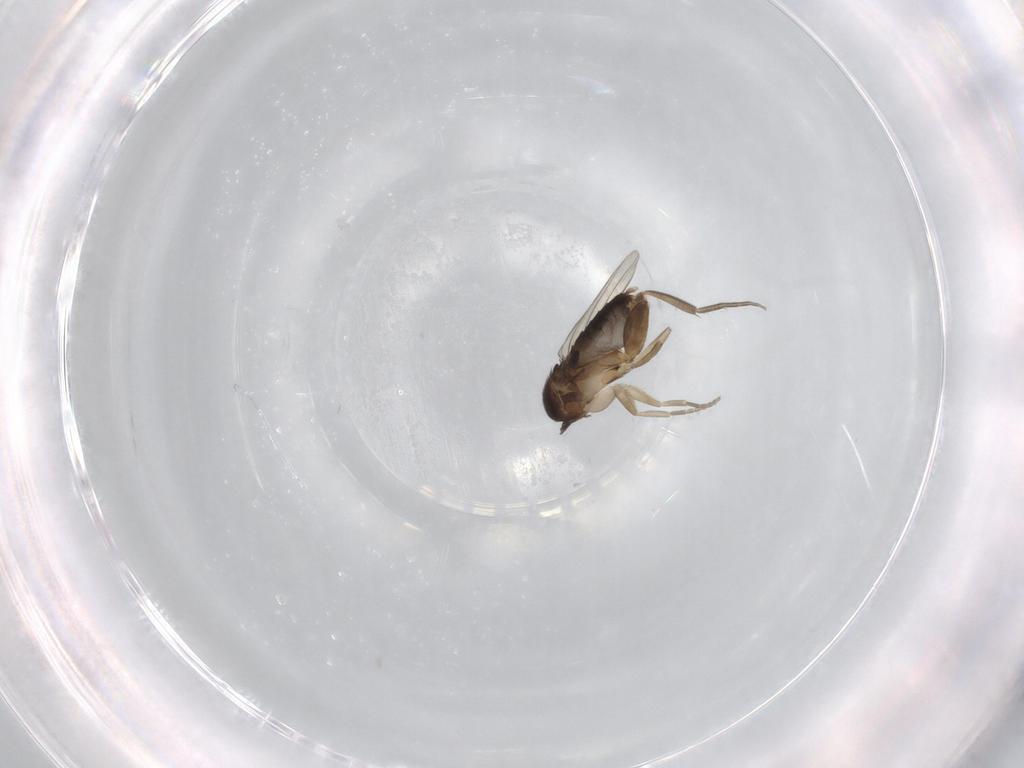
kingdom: Animalia
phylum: Arthropoda
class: Insecta
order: Diptera
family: Phoridae
